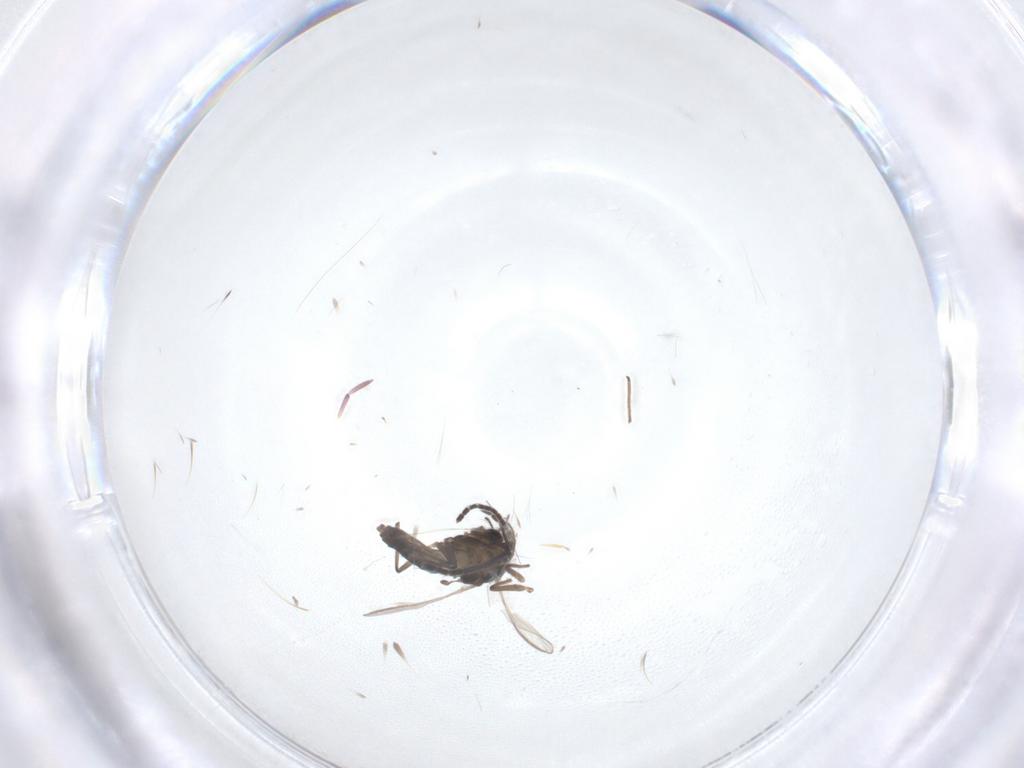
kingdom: Animalia
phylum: Arthropoda
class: Insecta
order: Diptera
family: Chironomidae
